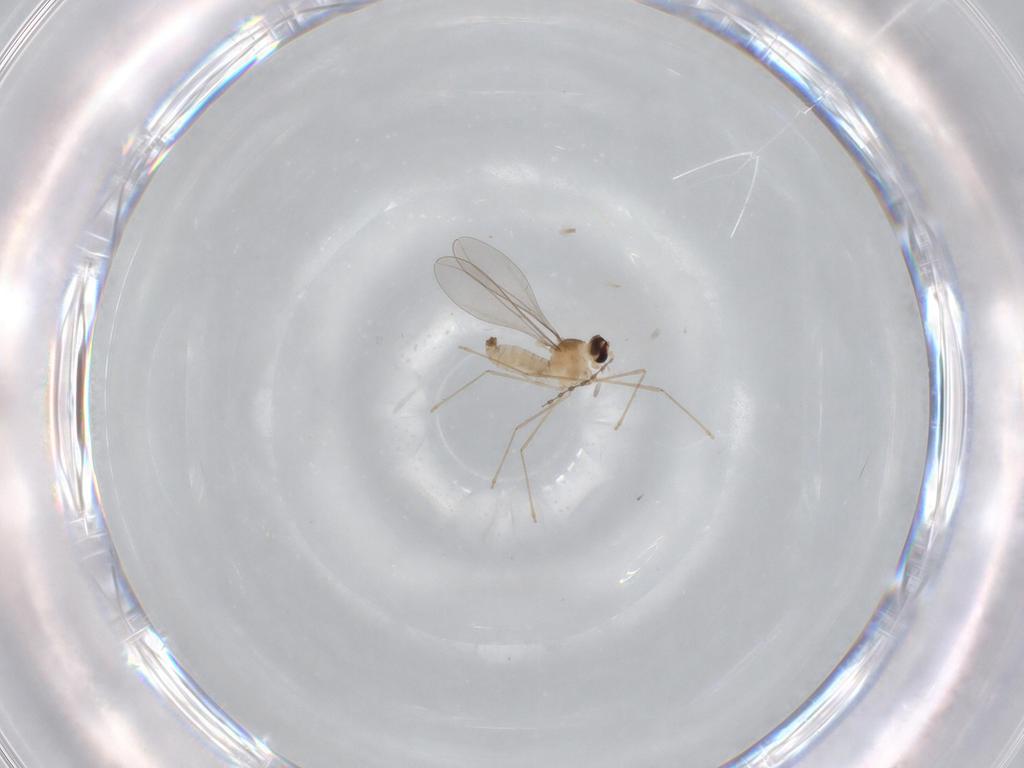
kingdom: Animalia
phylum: Arthropoda
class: Insecta
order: Diptera
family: Cecidomyiidae
